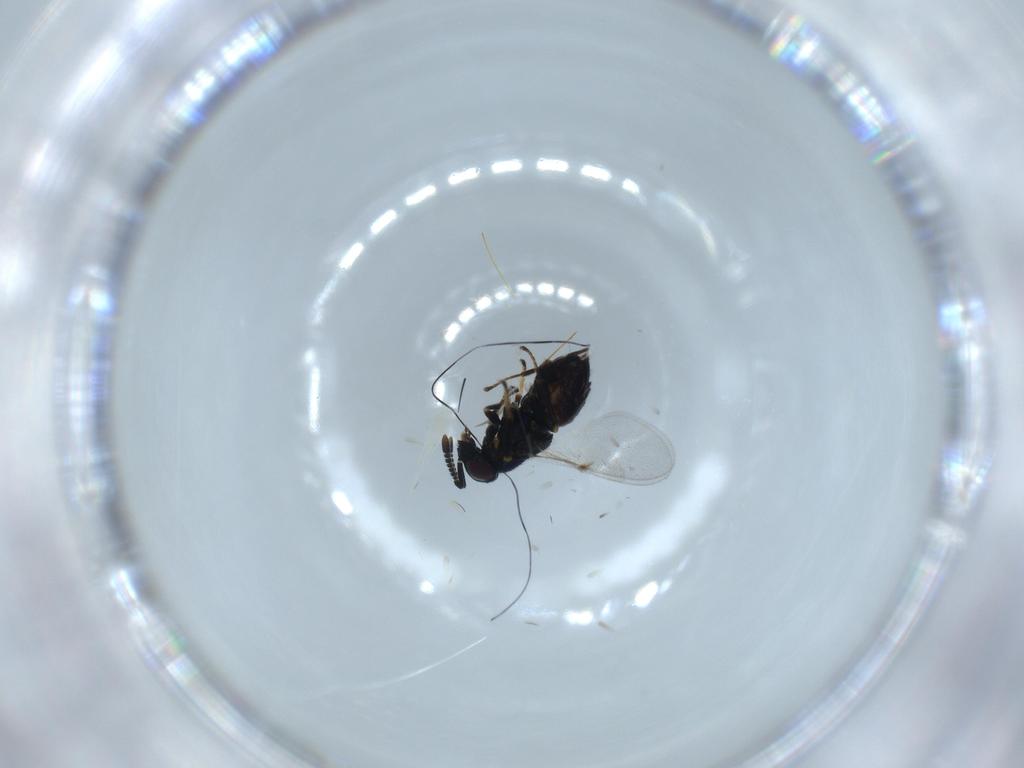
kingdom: Animalia
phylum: Arthropoda
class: Insecta
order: Hymenoptera
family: Encyrtidae
